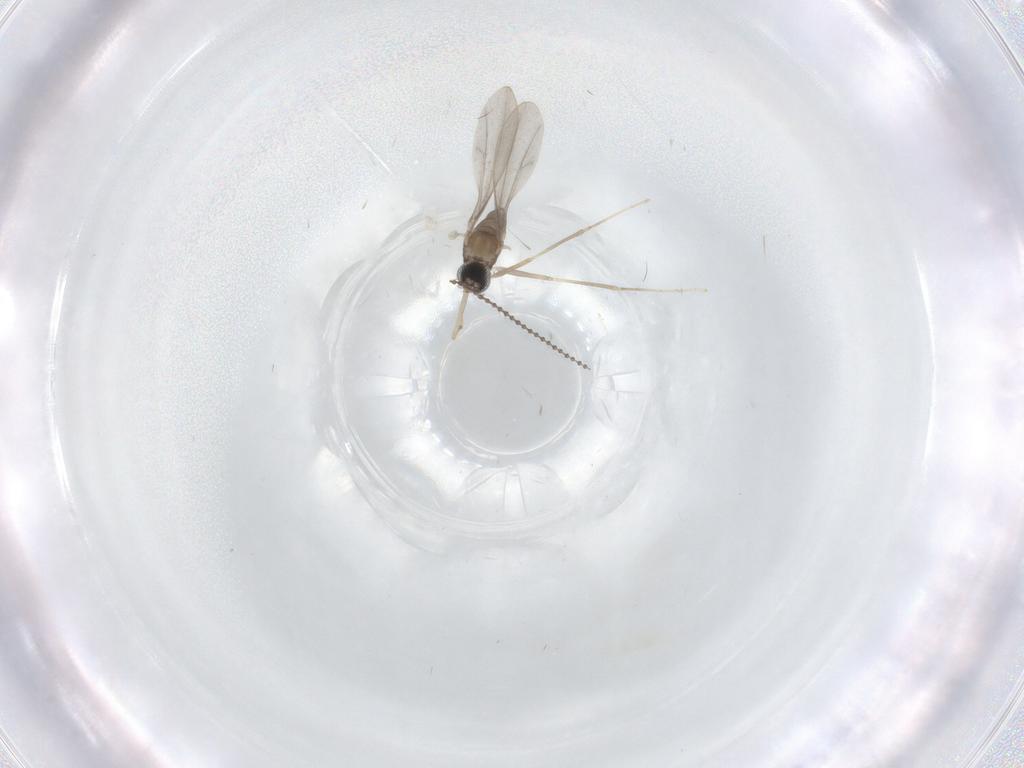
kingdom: Animalia
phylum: Arthropoda
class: Insecta
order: Diptera
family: Cecidomyiidae
